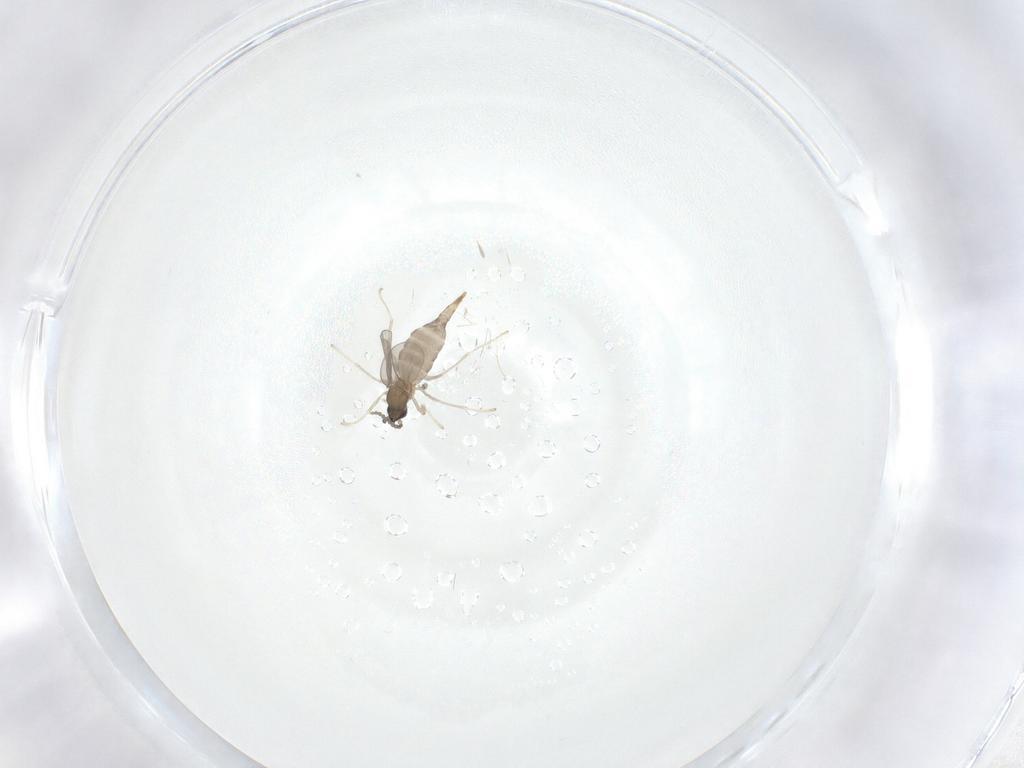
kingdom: Animalia
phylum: Arthropoda
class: Insecta
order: Diptera
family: Cecidomyiidae
